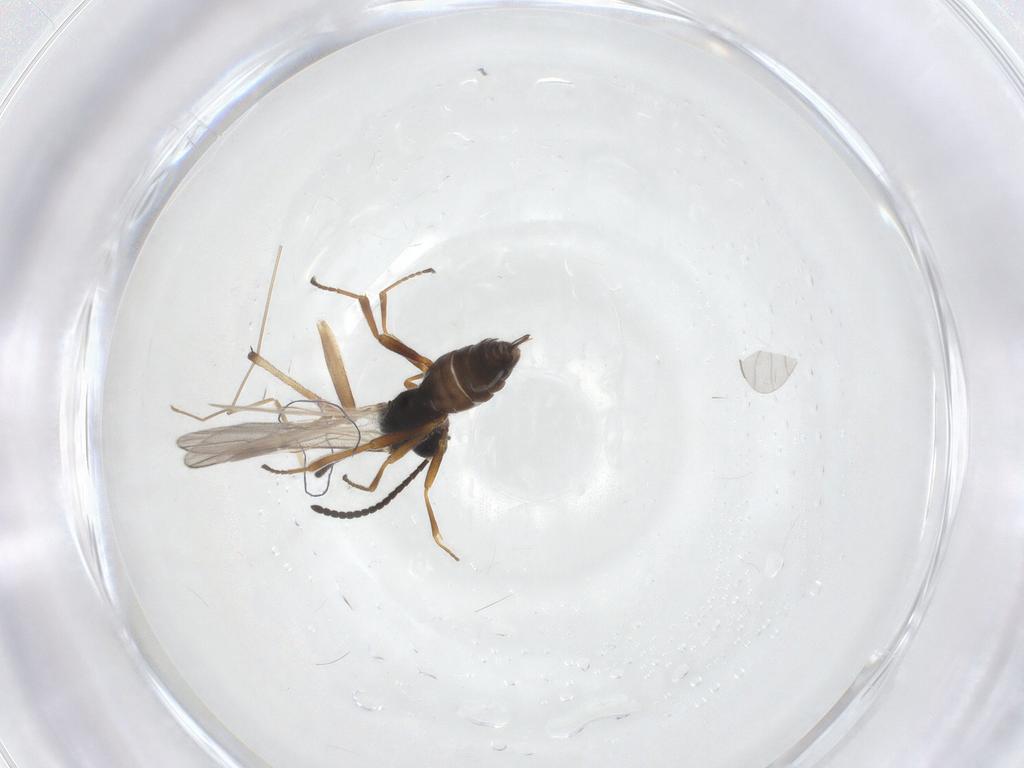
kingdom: Animalia
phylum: Arthropoda
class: Insecta
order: Hymenoptera
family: Braconidae
